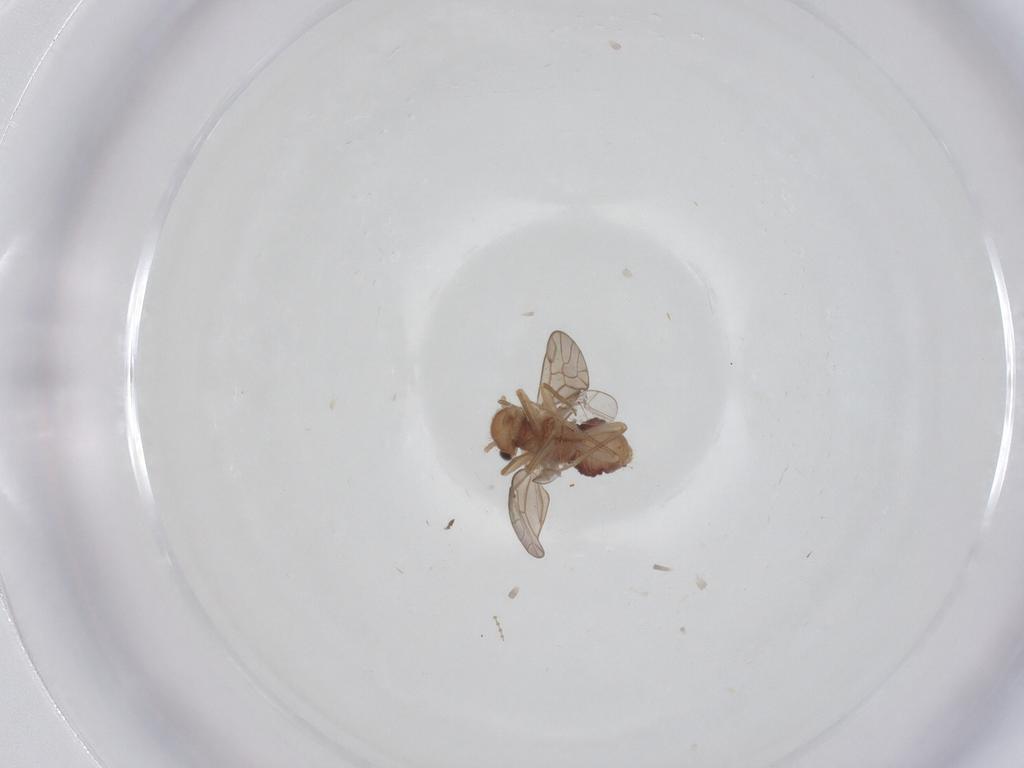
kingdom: Animalia
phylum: Arthropoda
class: Insecta
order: Psocodea
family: Ectopsocidae
